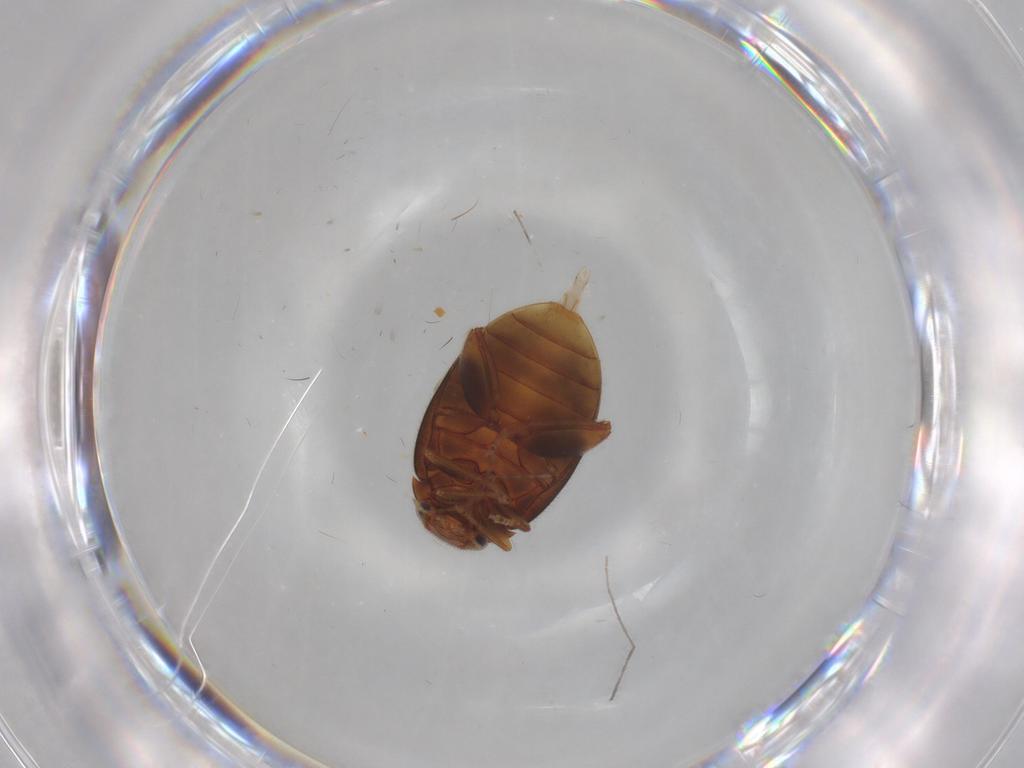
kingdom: Animalia
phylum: Arthropoda
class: Insecta
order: Coleoptera
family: Scirtidae
